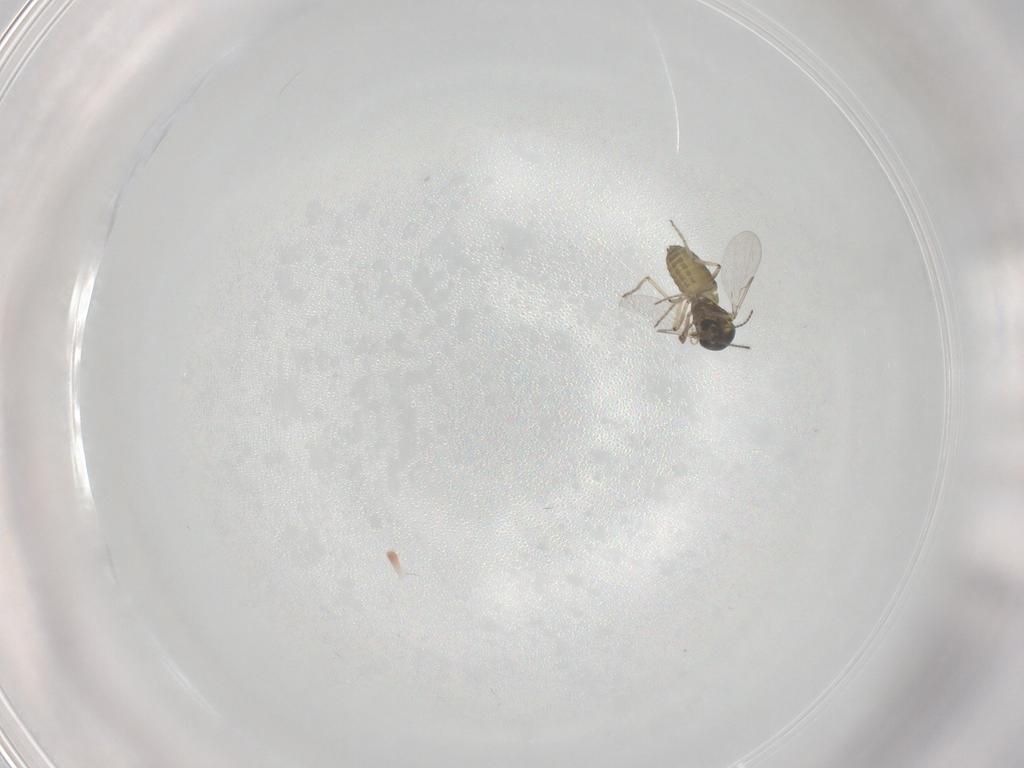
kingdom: Animalia
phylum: Arthropoda
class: Insecta
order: Diptera
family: Ceratopogonidae
